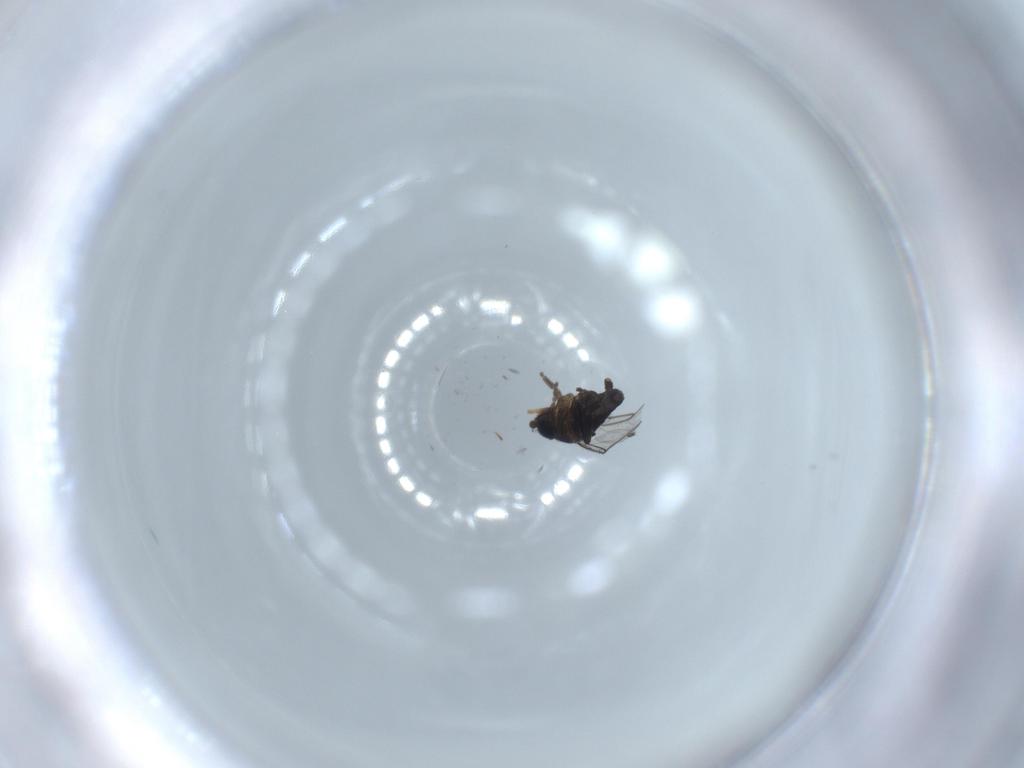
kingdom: Animalia
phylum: Arthropoda
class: Insecta
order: Diptera
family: Phoridae
